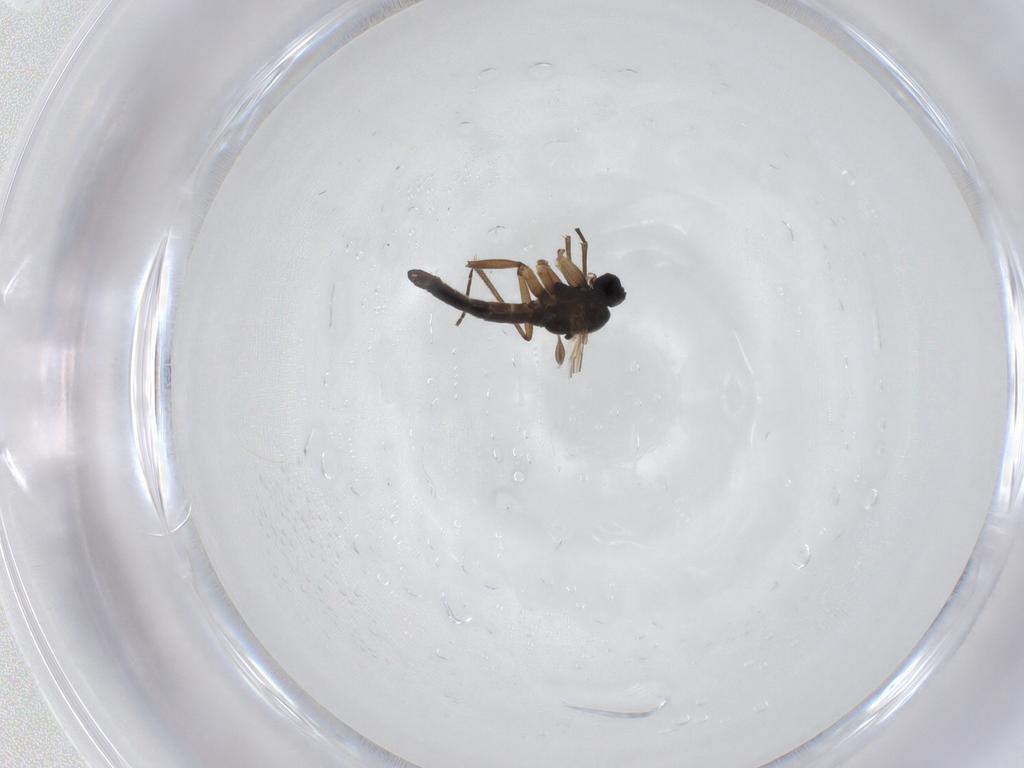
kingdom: Animalia
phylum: Arthropoda
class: Insecta
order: Diptera
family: Sciaridae
